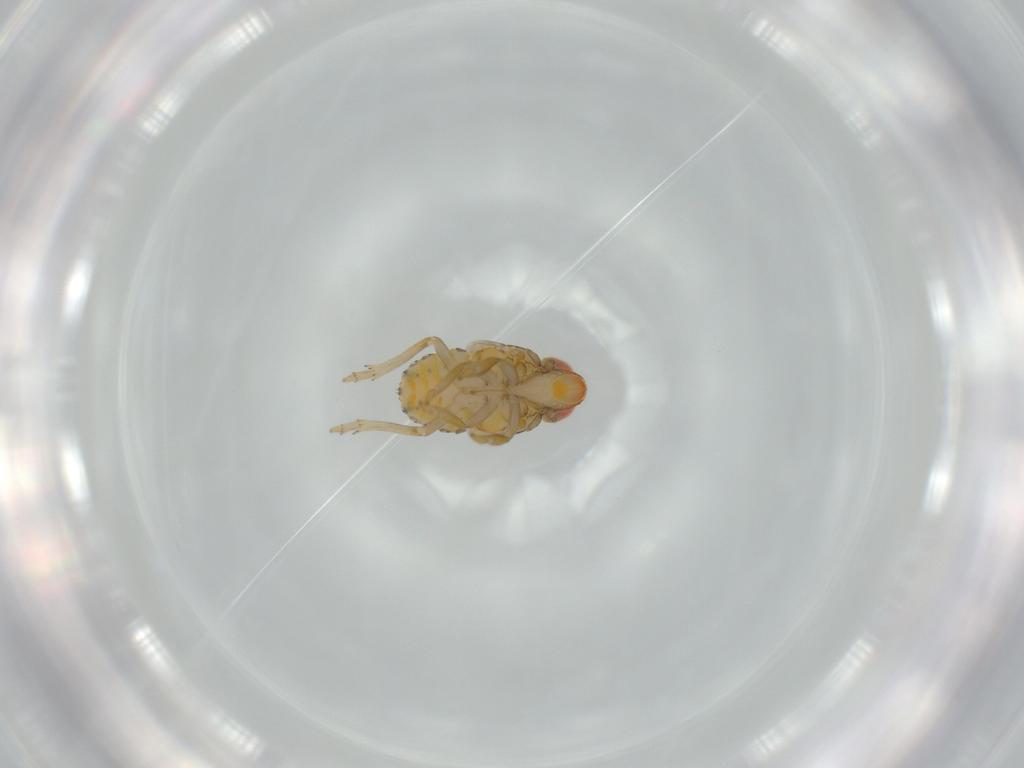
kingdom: Animalia
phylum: Arthropoda
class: Insecta
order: Hemiptera
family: Fulgoroidea_incertae_sedis
